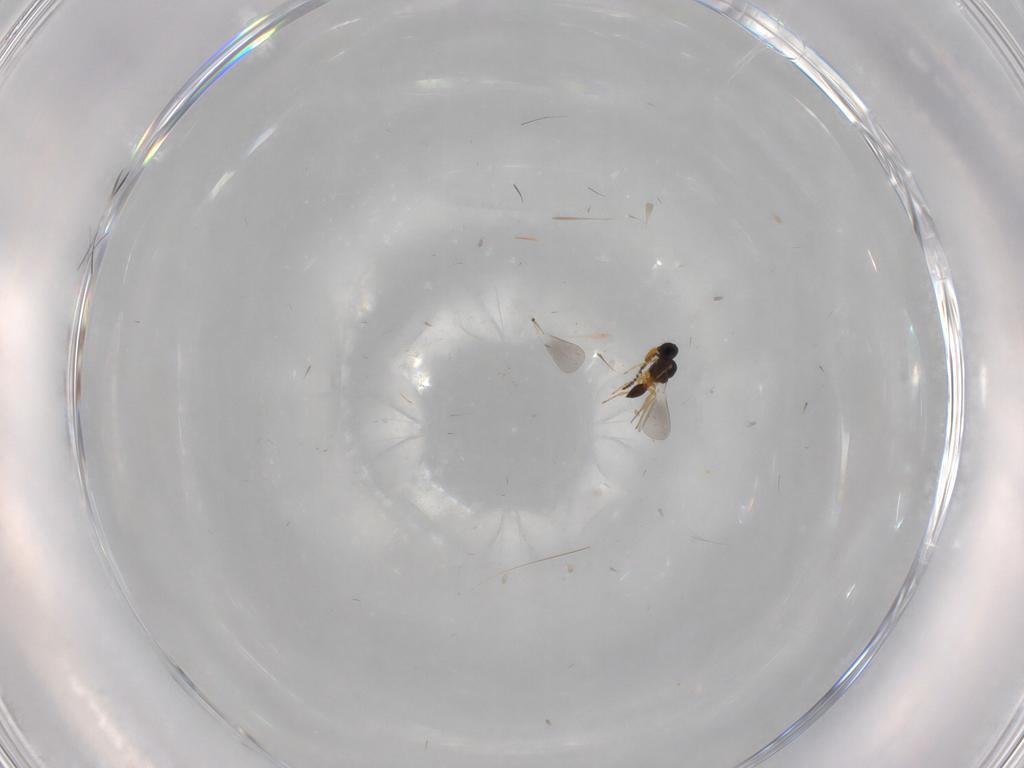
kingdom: Animalia
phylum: Arthropoda
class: Insecta
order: Hymenoptera
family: Platygastridae
